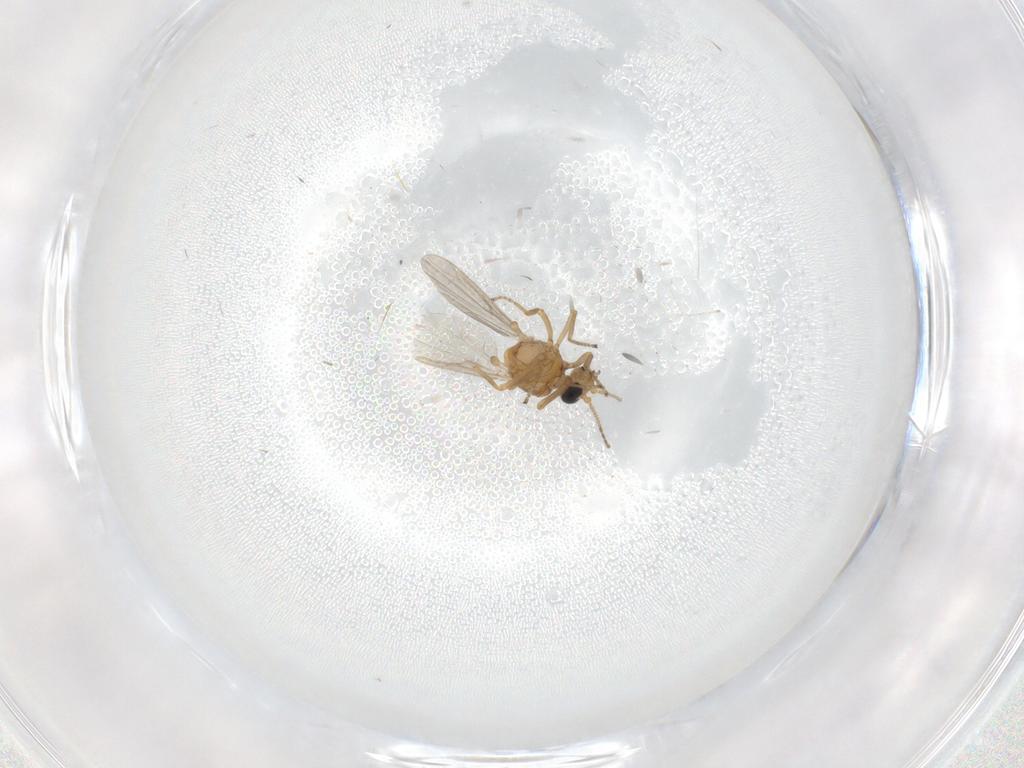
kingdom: Animalia
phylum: Arthropoda
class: Insecta
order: Diptera
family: Ceratopogonidae
